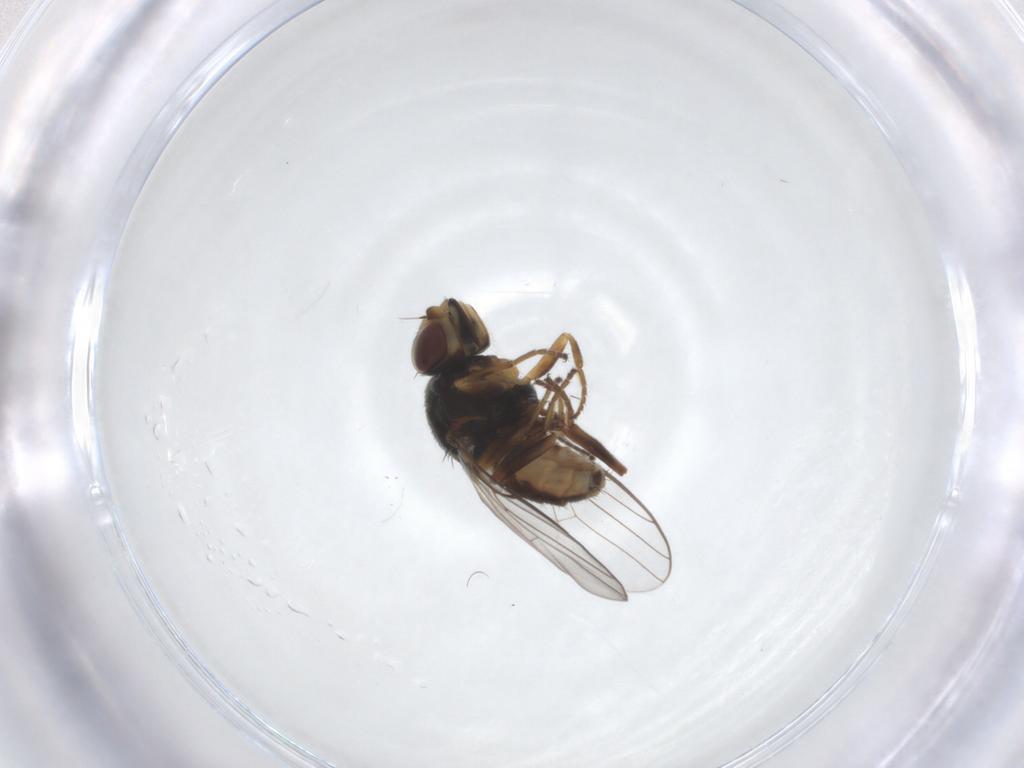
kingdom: Animalia
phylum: Arthropoda
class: Insecta
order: Diptera
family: Chloropidae
